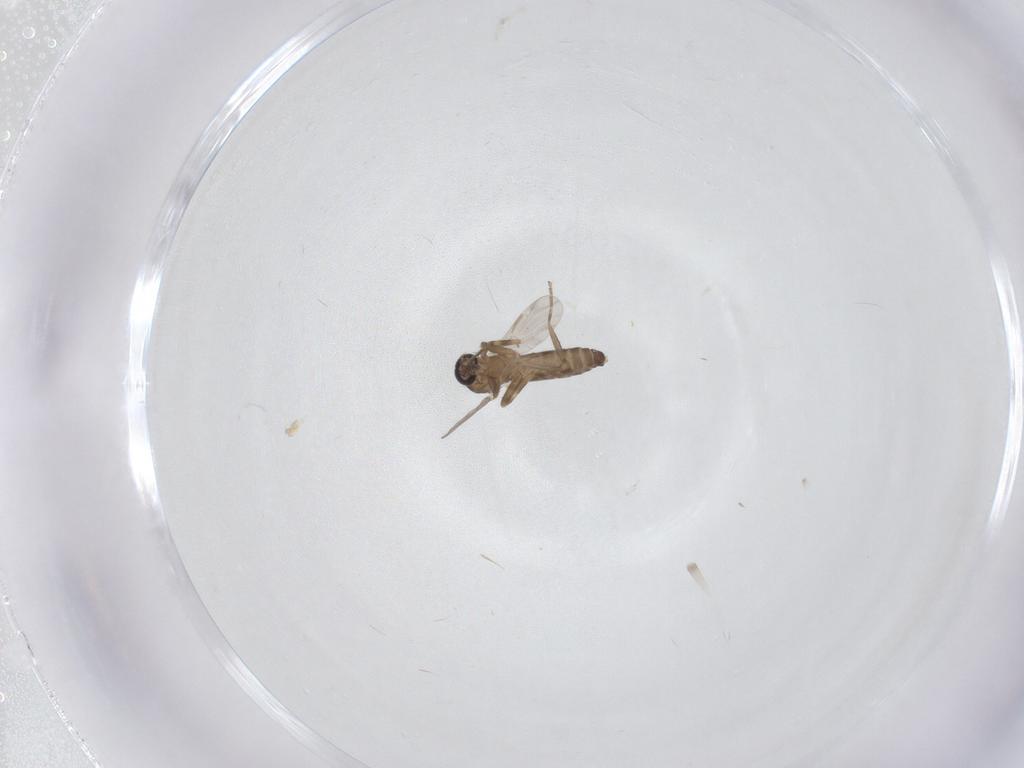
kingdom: Animalia
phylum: Arthropoda
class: Insecta
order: Diptera
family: Ceratopogonidae
